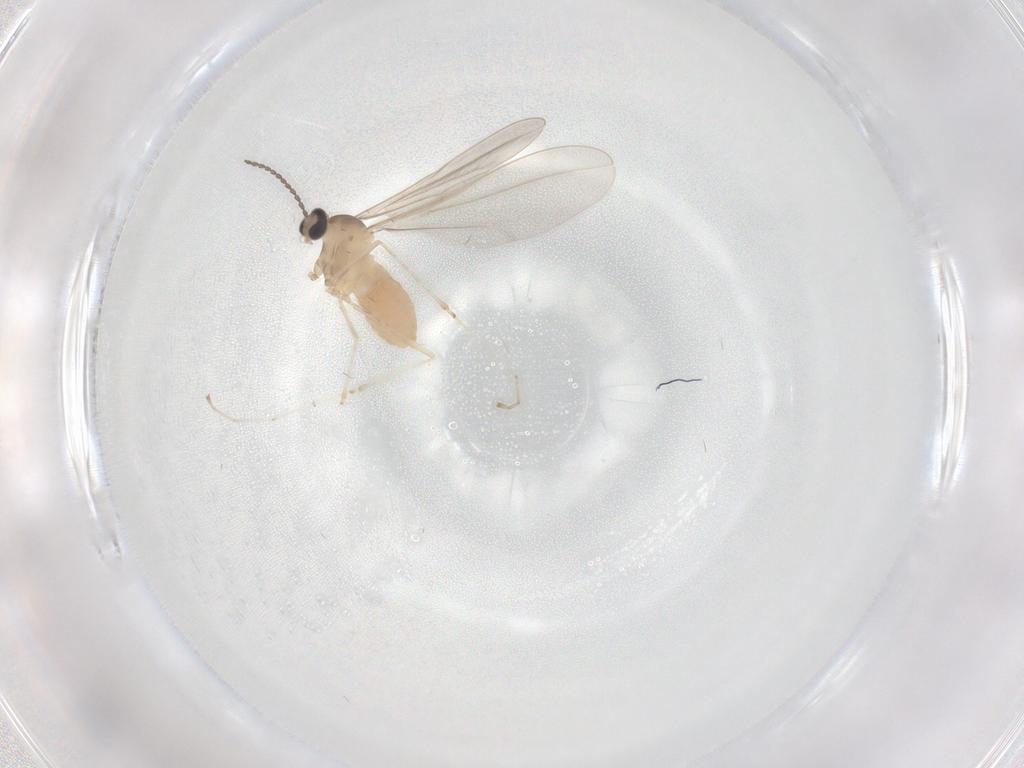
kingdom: Animalia
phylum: Arthropoda
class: Insecta
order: Diptera
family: Cecidomyiidae
